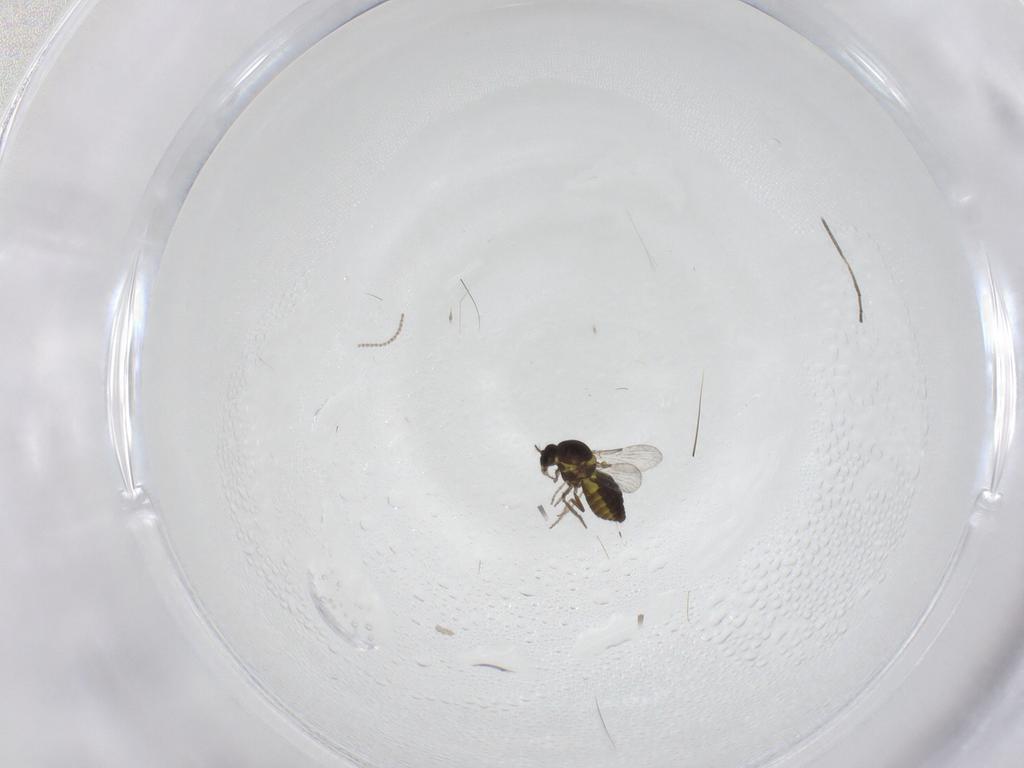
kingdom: Animalia
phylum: Arthropoda
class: Insecta
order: Diptera
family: Cecidomyiidae
